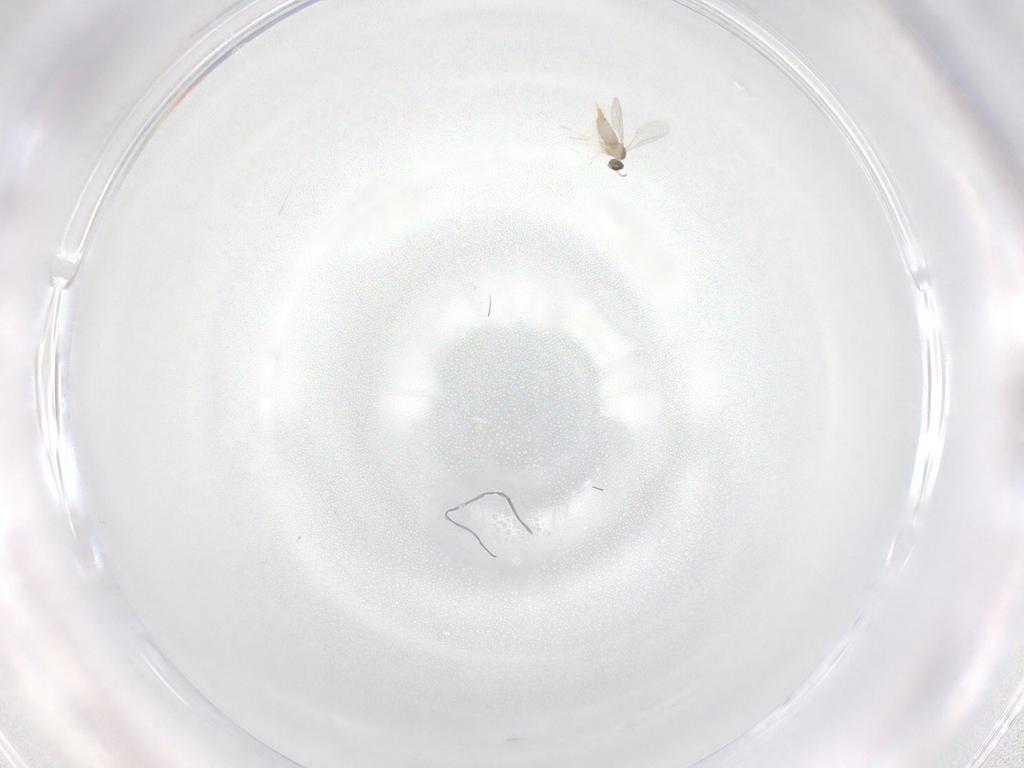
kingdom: Animalia
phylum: Arthropoda
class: Insecta
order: Diptera
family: Cecidomyiidae
